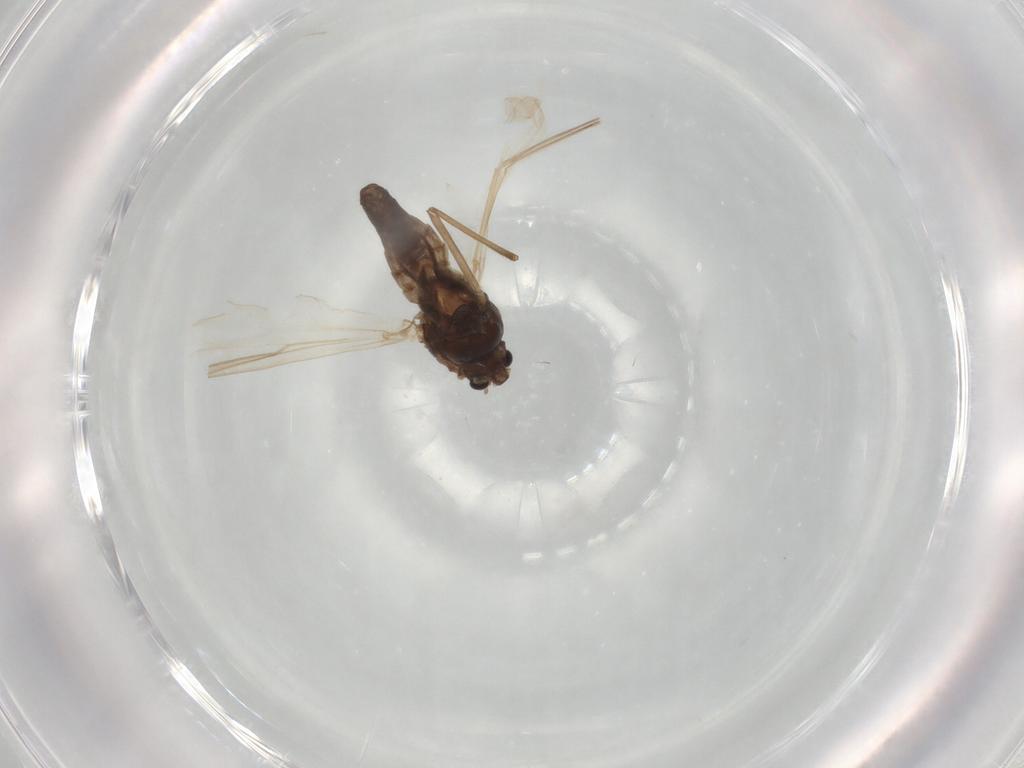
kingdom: Animalia
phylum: Arthropoda
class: Insecta
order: Diptera
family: Chironomidae
